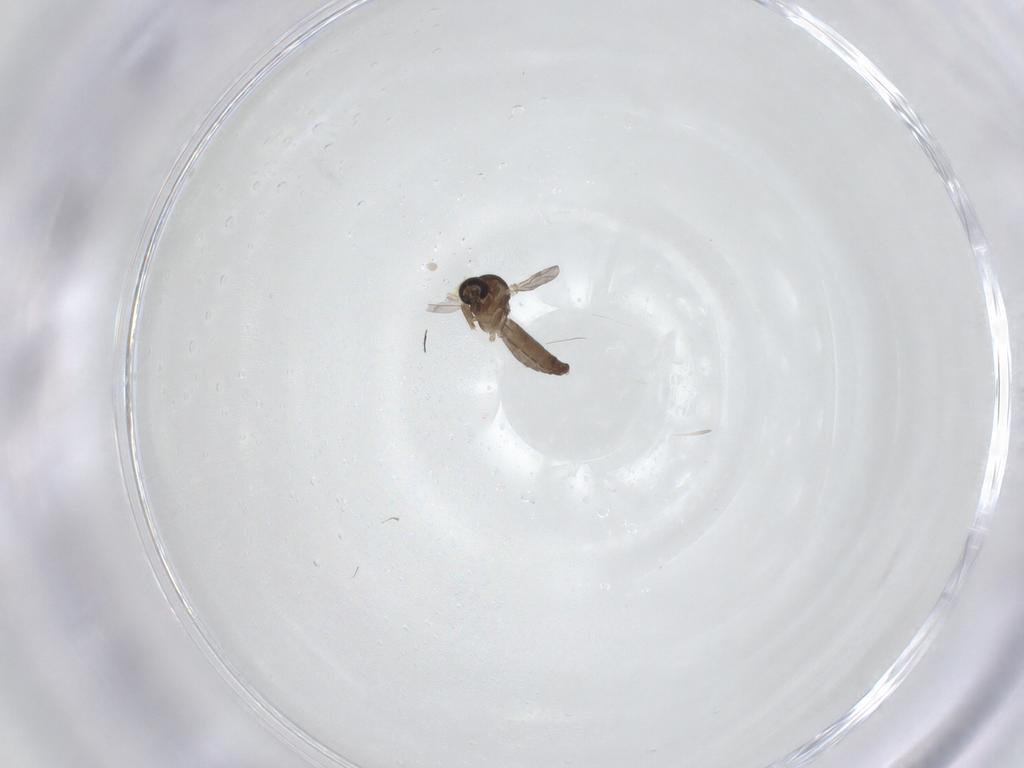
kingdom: Animalia
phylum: Arthropoda
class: Insecta
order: Diptera
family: Ceratopogonidae
